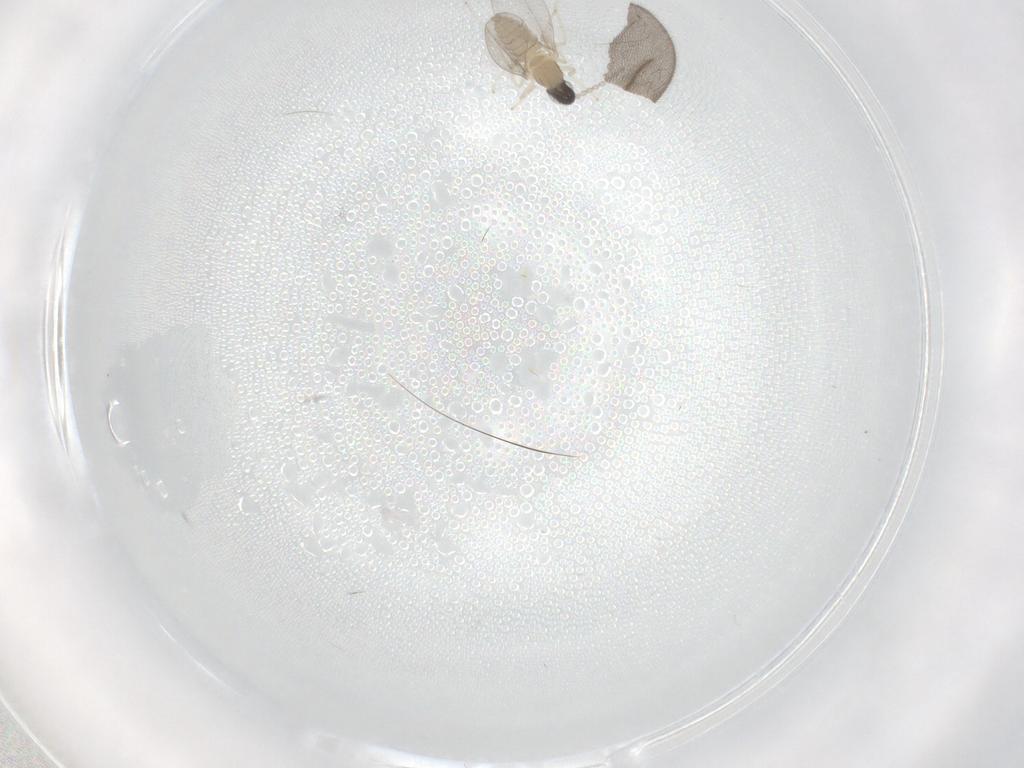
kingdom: Animalia
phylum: Arthropoda
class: Insecta
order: Diptera
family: Chironomidae
